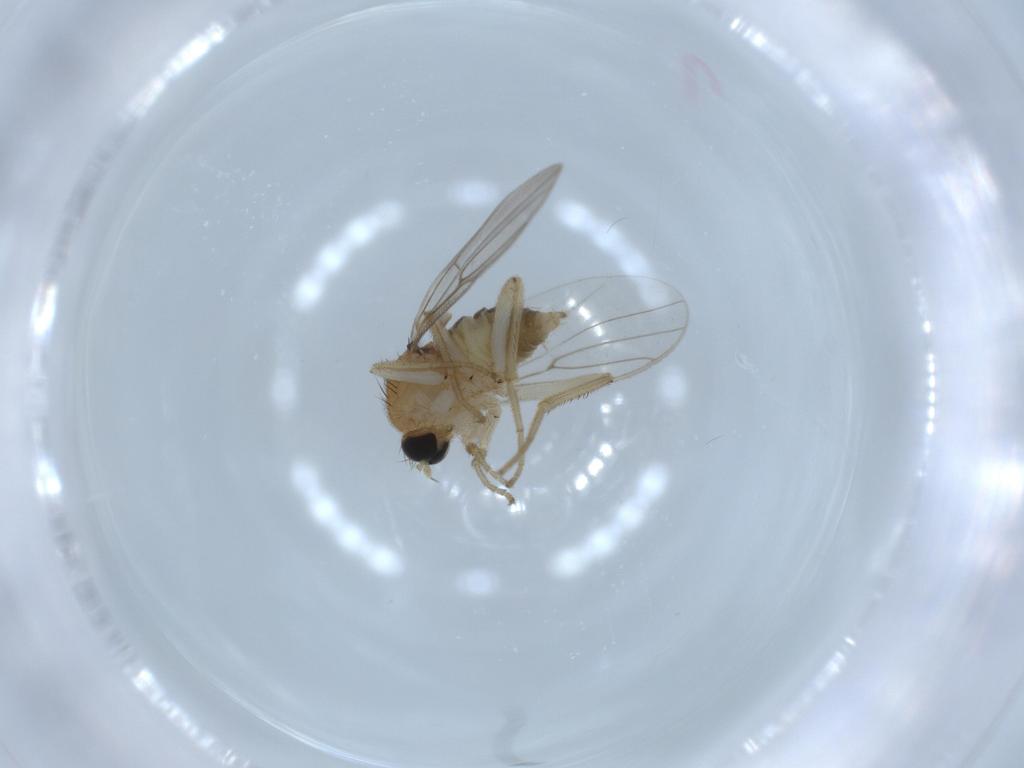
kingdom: Animalia
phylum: Arthropoda
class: Insecta
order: Diptera
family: Hybotidae
